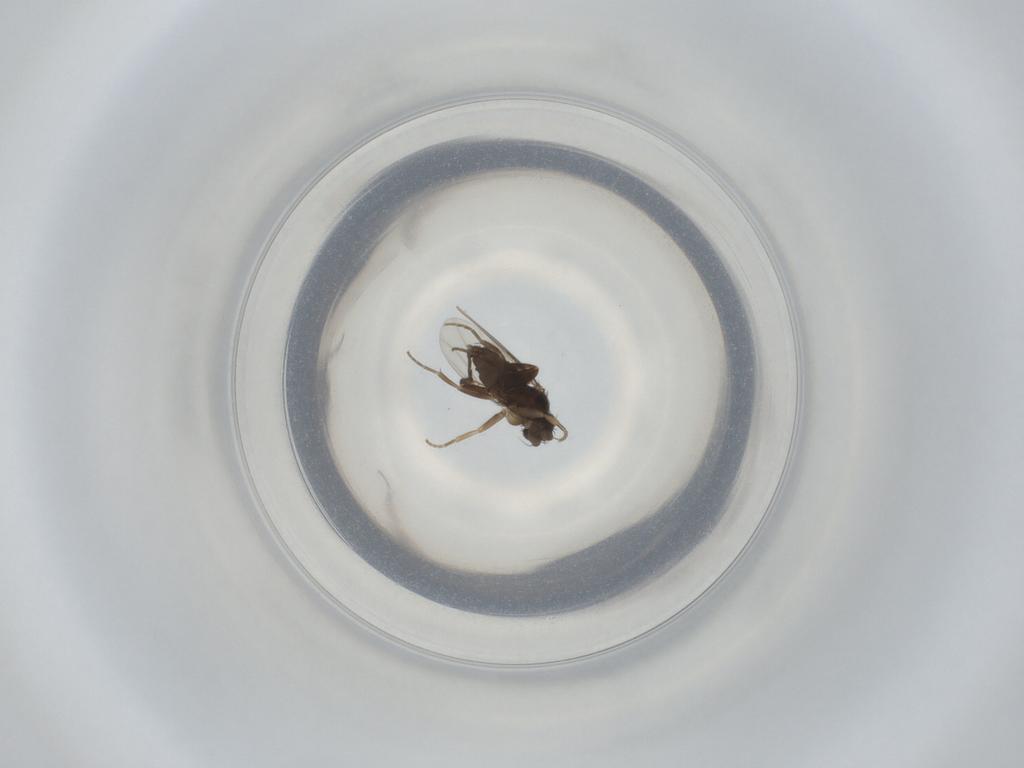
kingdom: Animalia
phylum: Arthropoda
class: Insecta
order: Diptera
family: Phoridae
